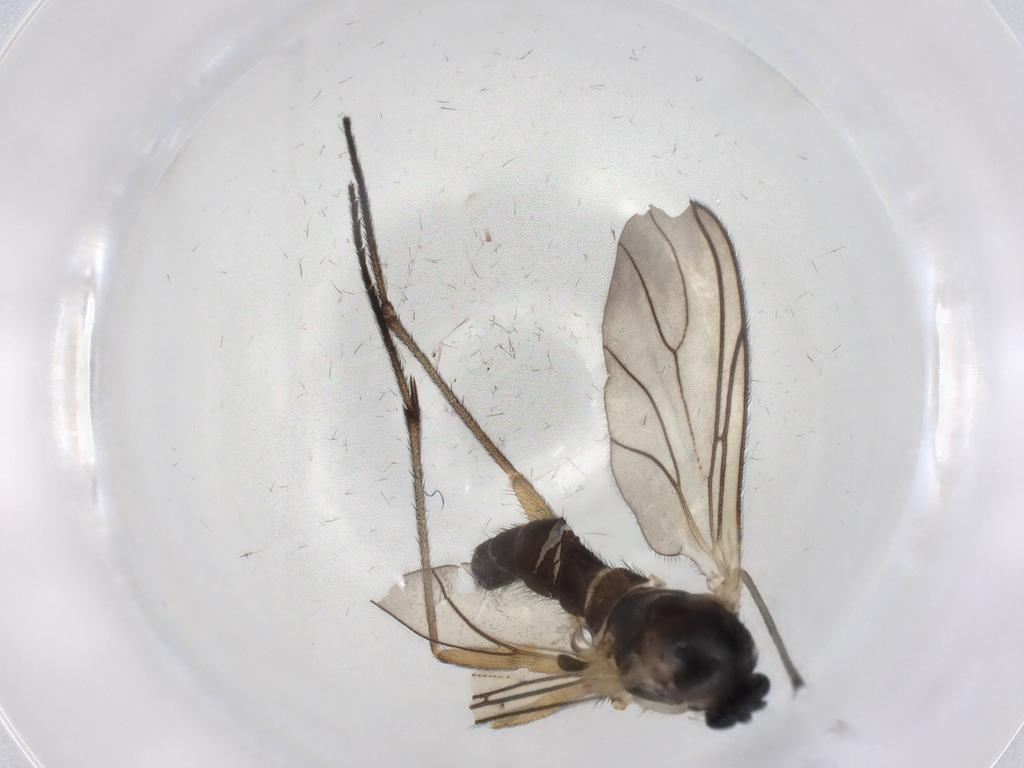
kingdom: Animalia
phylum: Arthropoda
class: Insecta
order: Diptera
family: Sciaridae
